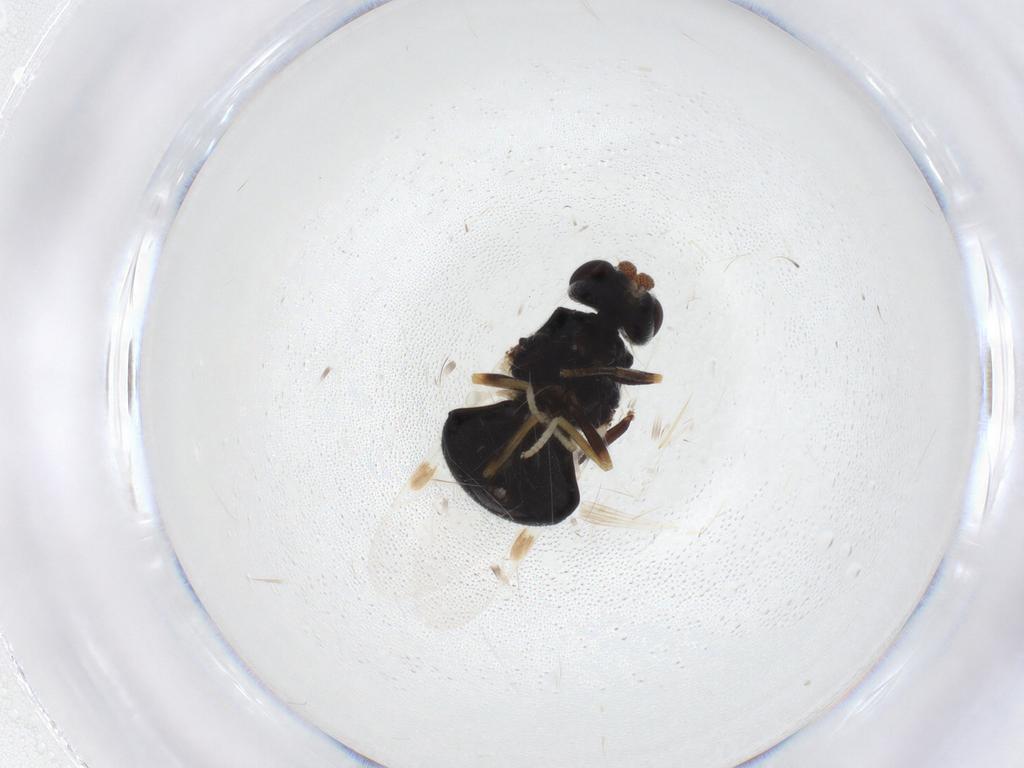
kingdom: Animalia
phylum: Arthropoda
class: Insecta
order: Diptera
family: Stratiomyidae
